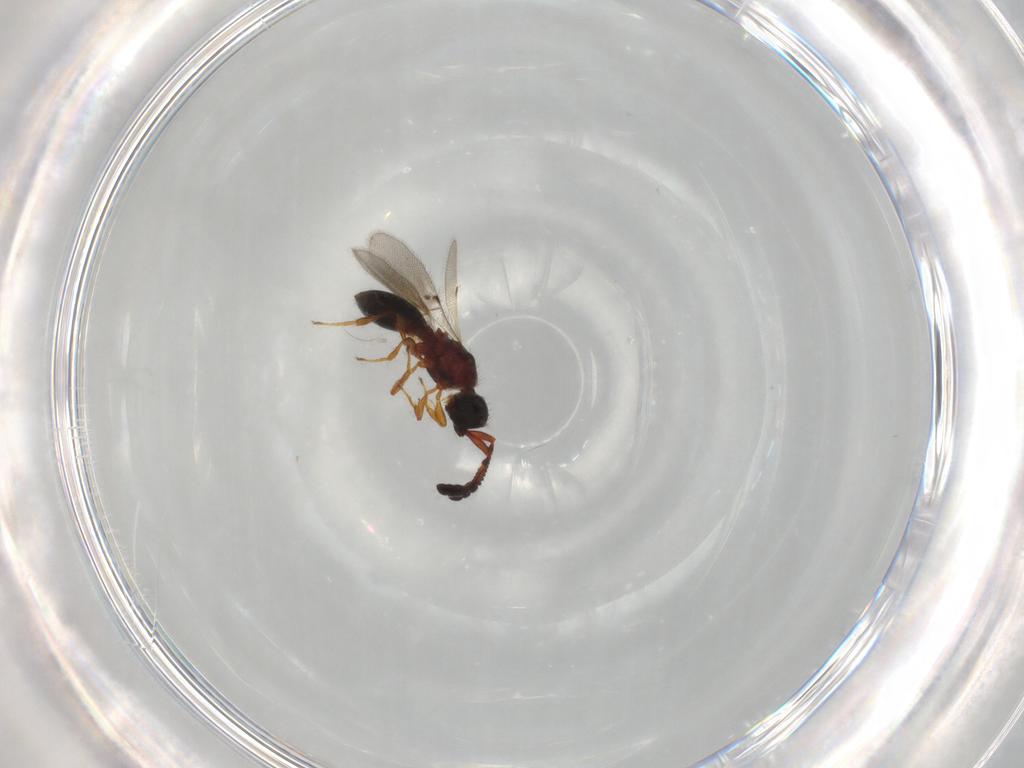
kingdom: Animalia
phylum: Arthropoda
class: Insecta
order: Hymenoptera
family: Diapriidae
